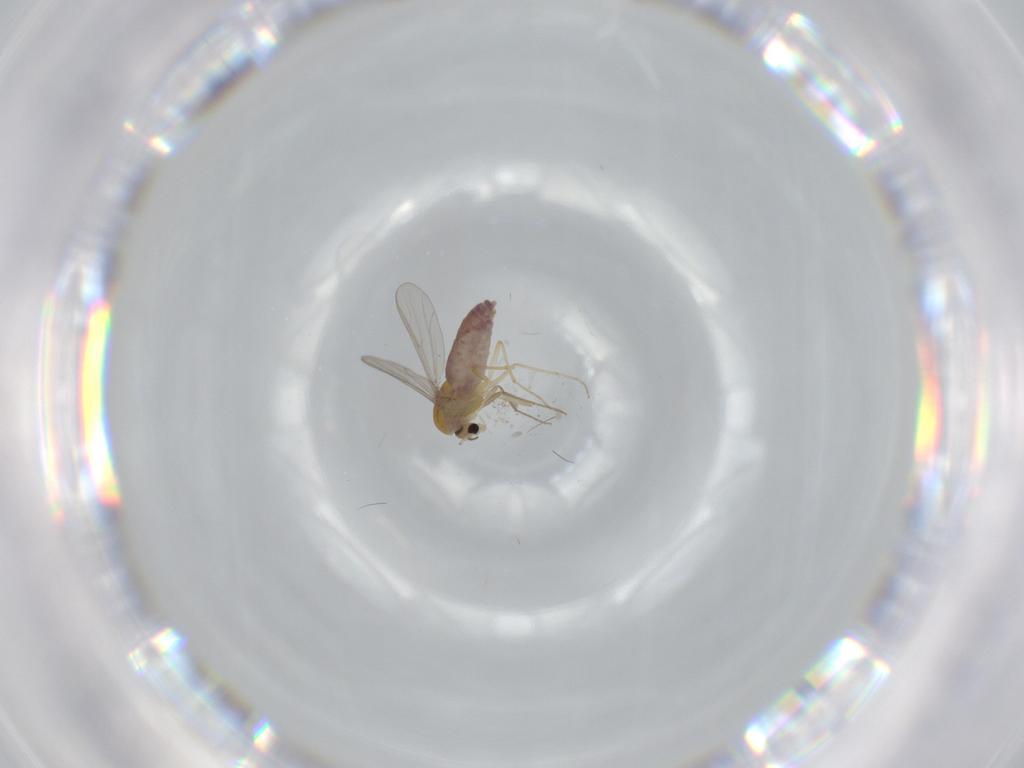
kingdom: Animalia
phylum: Arthropoda
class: Insecta
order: Diptera
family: Chironomidae
